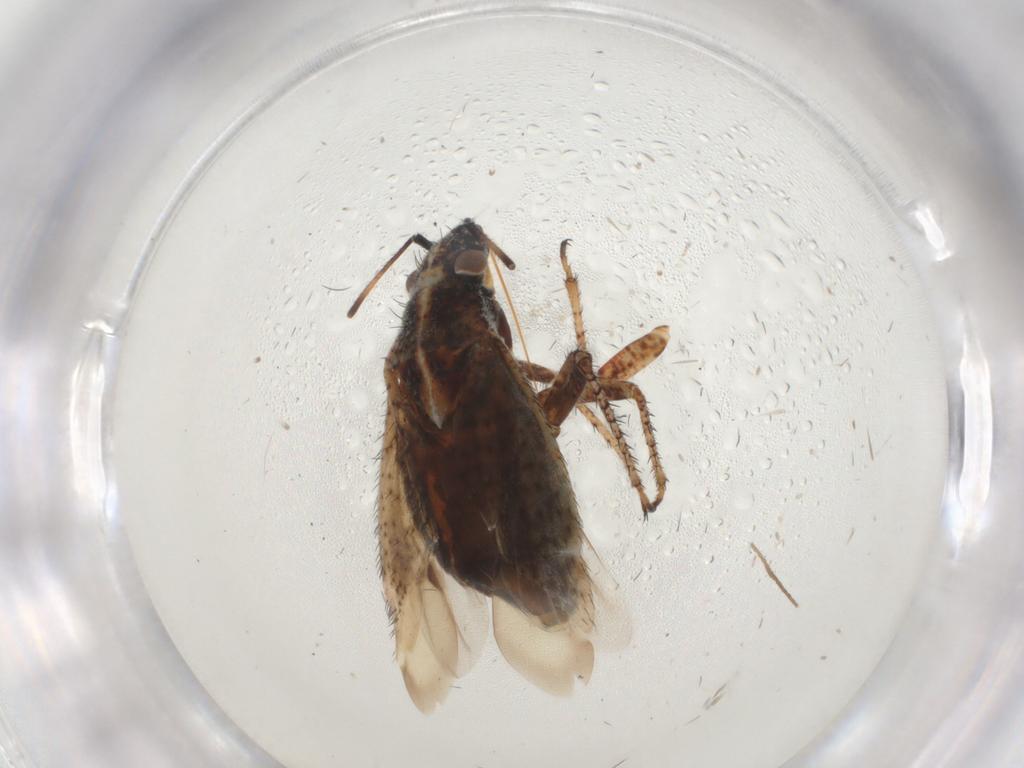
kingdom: Animalia
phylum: Arthropoda
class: Insecta
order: Hemiptera
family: Miridae
